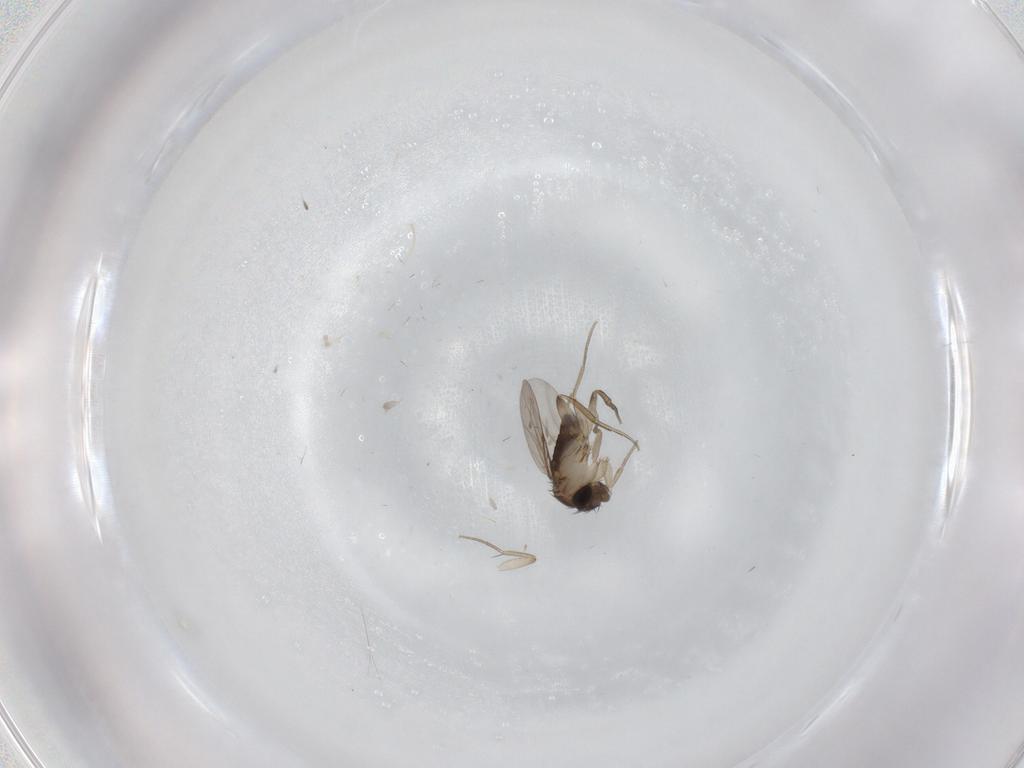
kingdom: Animalia
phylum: Arthropoda
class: Insecta
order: Diptera
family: Phoridae
